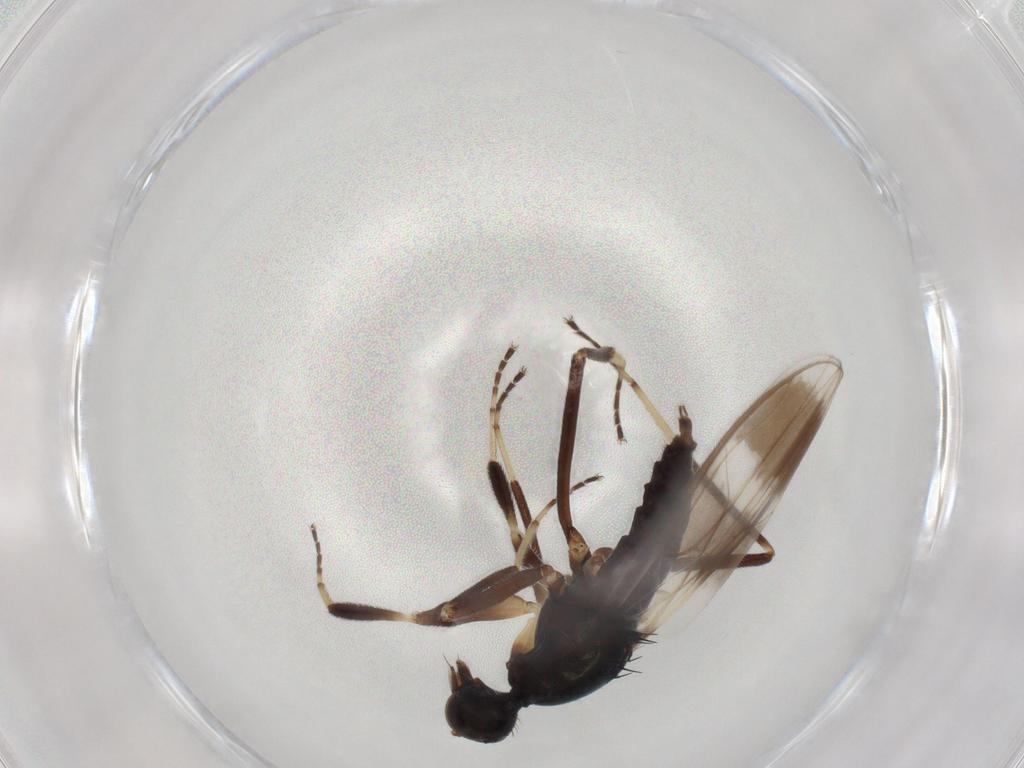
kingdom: Animalia
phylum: Arthropoda
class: Insecta
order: Diptera
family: Hybotidae
